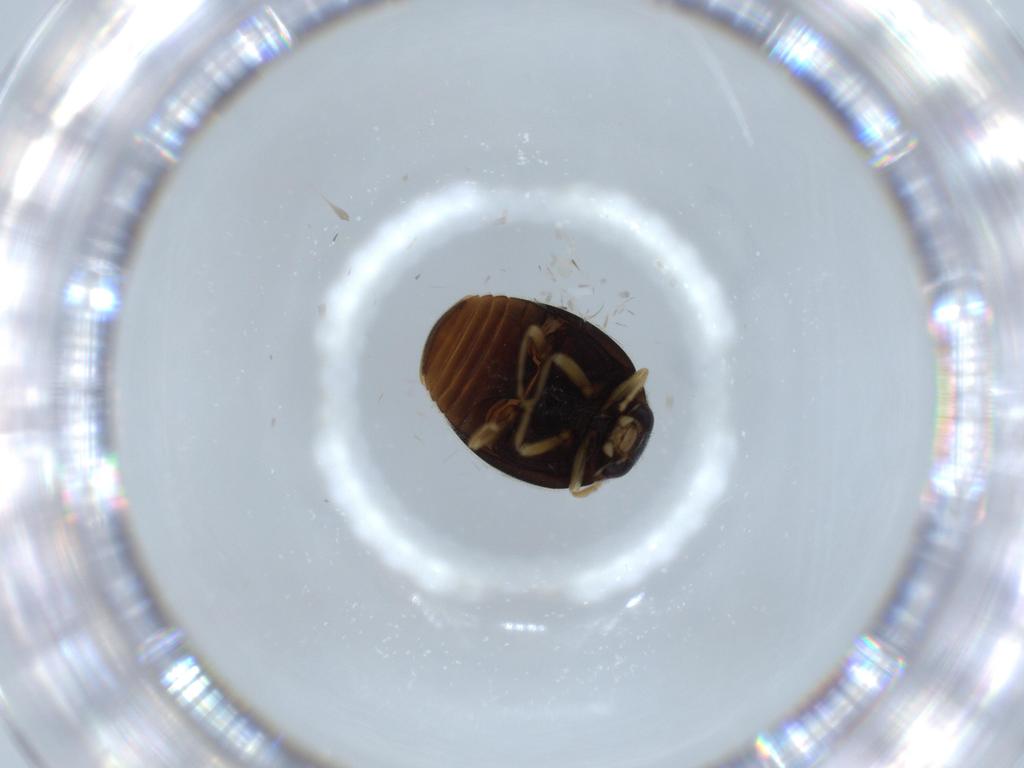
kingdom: Animalia
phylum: Arthropoda
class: Insecta
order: Coleoptera
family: Coccinellidae
